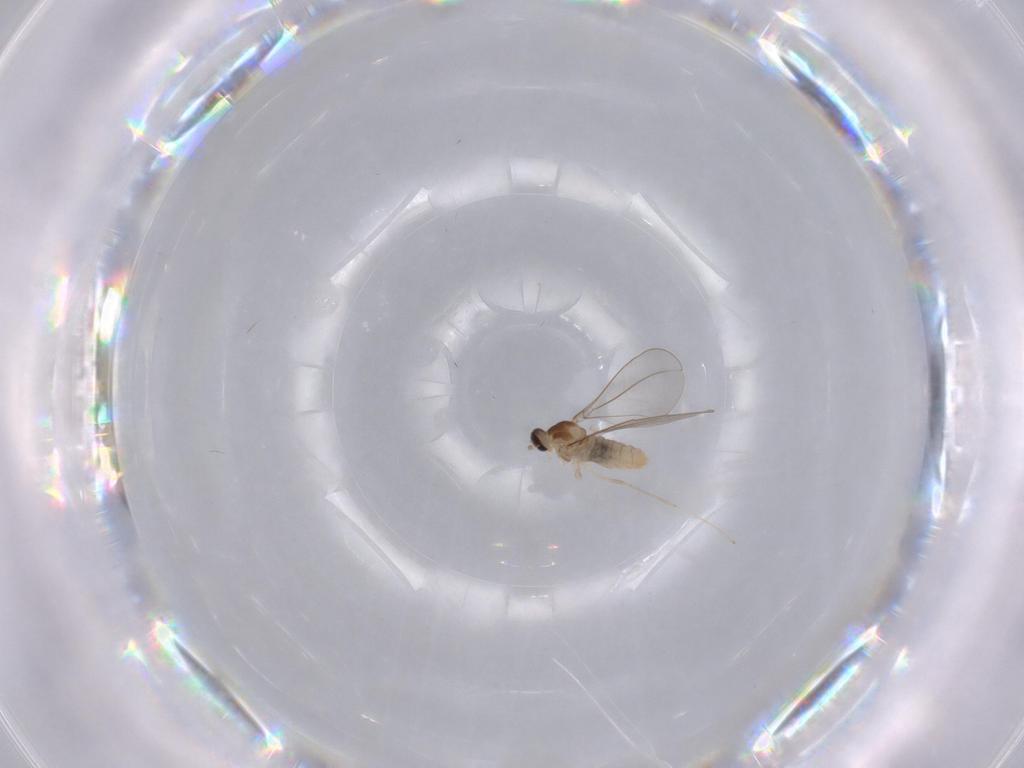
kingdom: Animalia
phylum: Arthropoda
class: Insecta
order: Diptera
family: Cecidomyiidae
